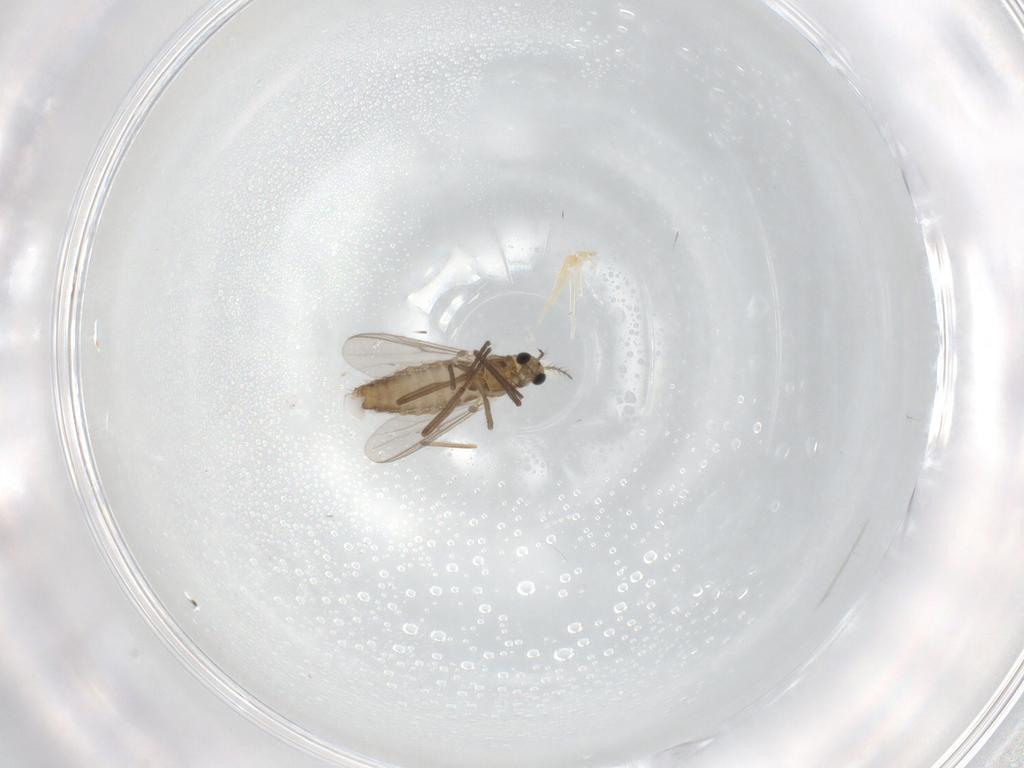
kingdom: Animalia
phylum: Arthropoda
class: Insecta
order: Diptera
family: Chironomidae
